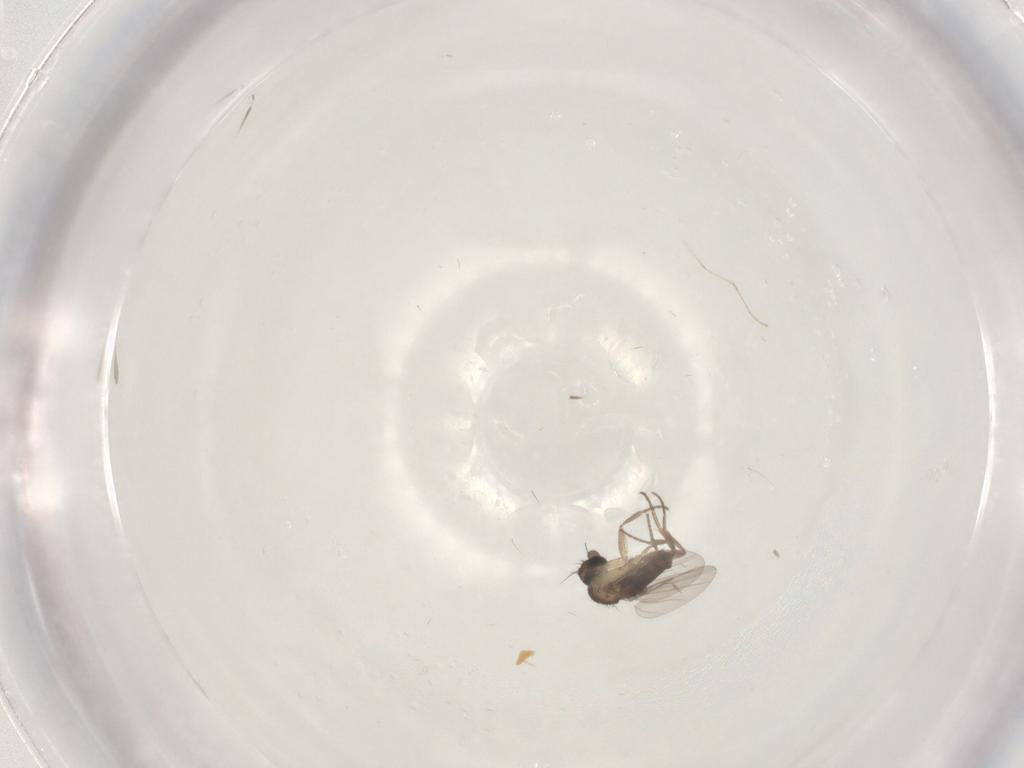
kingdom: Animalia
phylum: Arthropoda
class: Insecta
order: Diptera
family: Phoridae
